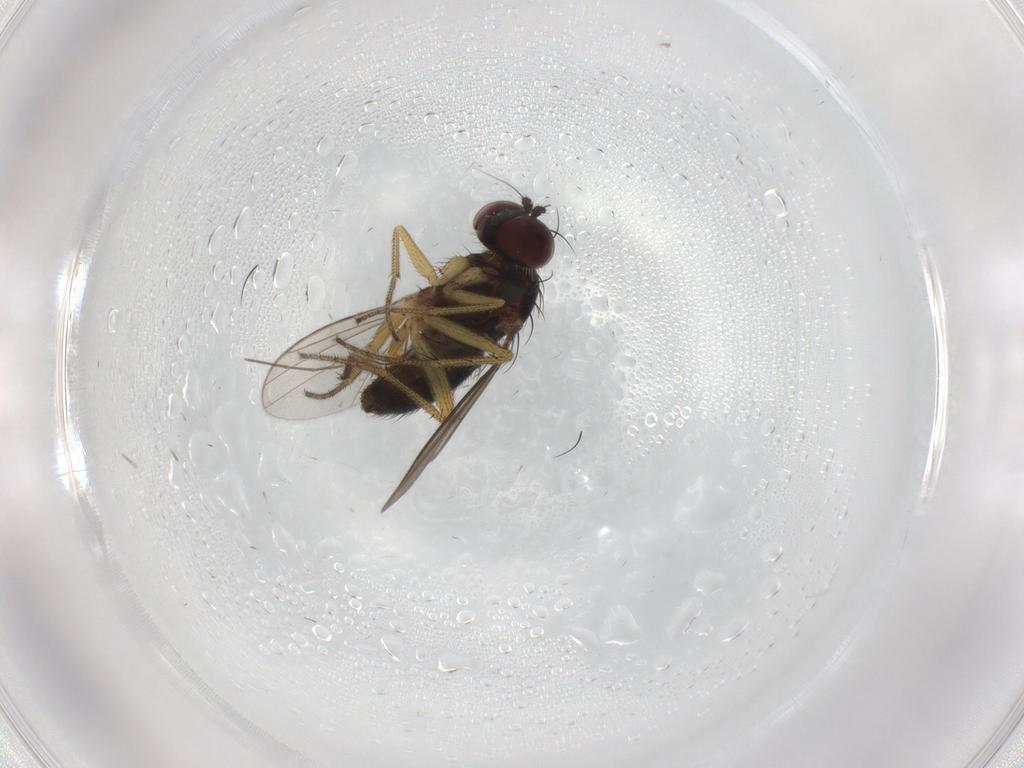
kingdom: Animalia
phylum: Arthropoda
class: Insecta
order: Diptera
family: Chironomidae
